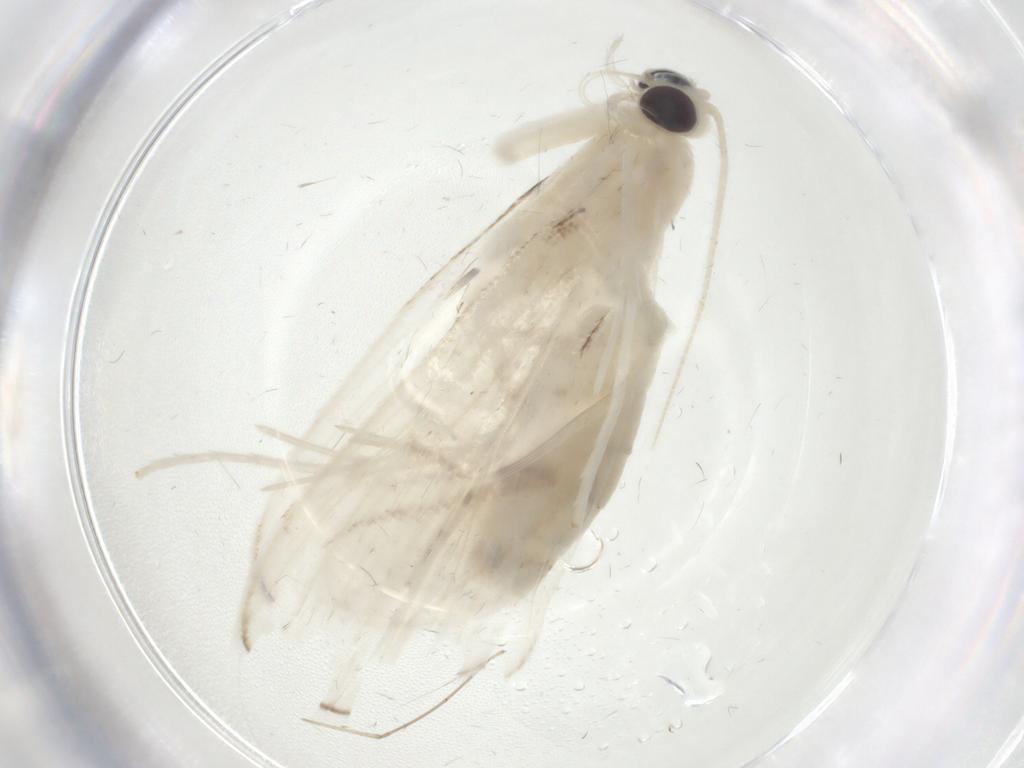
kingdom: Animalia
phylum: Arthropoda
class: Insecta
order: Lepidoptera
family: Crambidae
